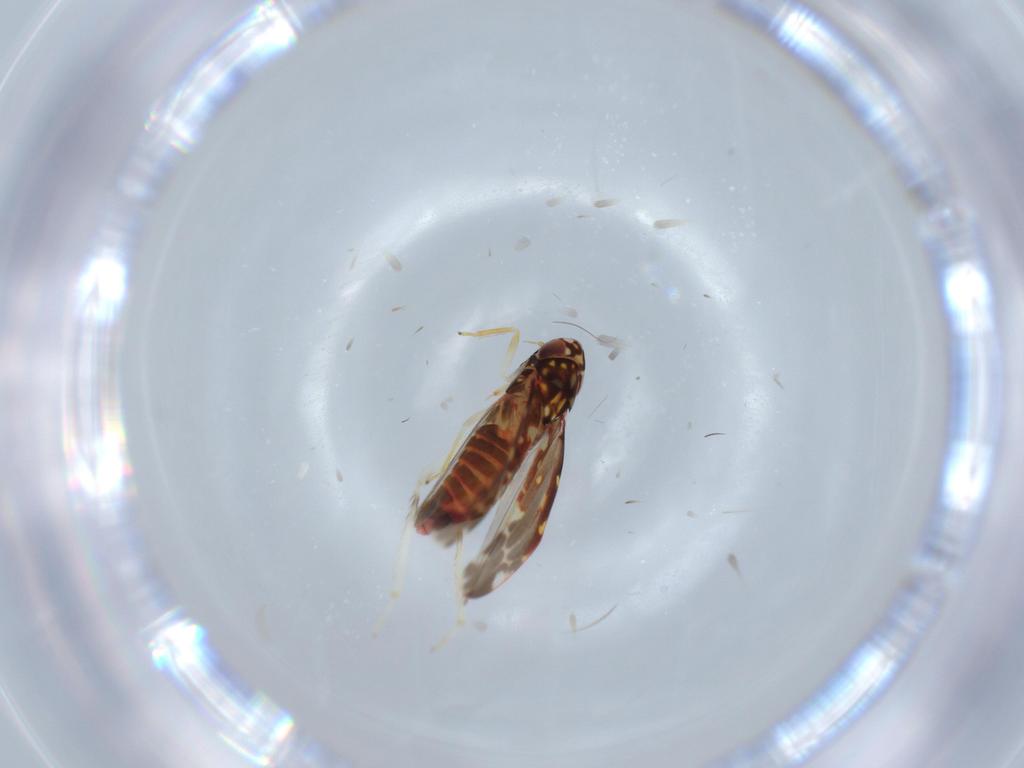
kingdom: Animalia
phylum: Arthropoda
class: Insecta
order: Hemiptera
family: Cicadellidae
